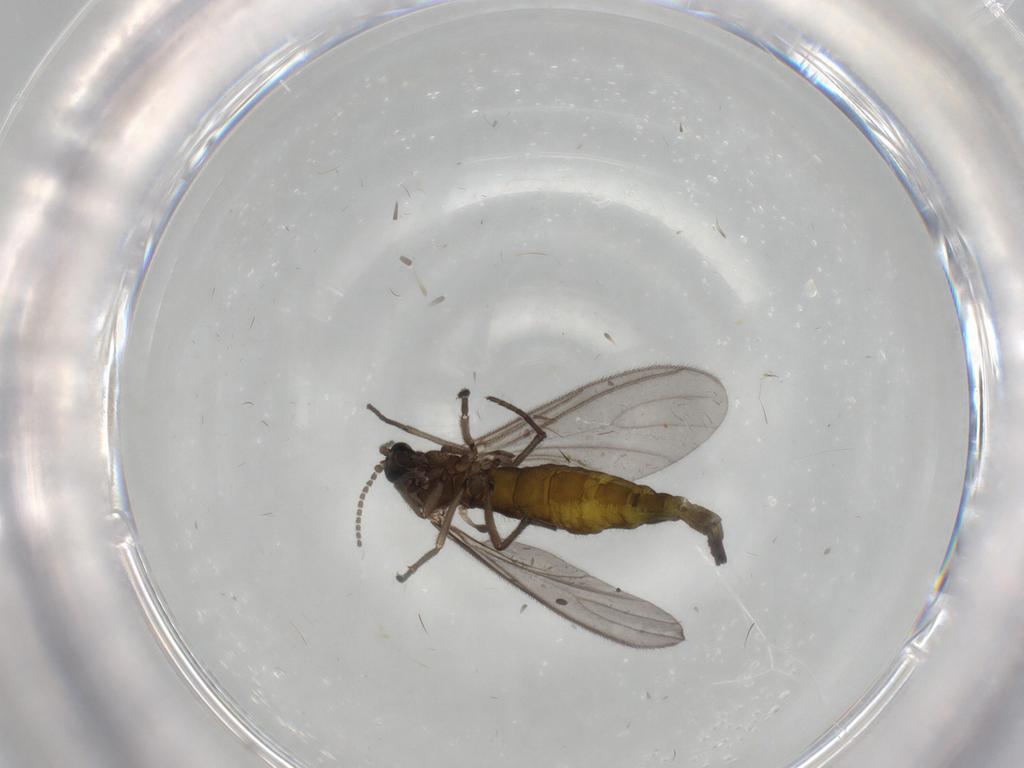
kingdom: Animalia
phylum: Arthropoda
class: Insecta
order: Diptera
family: Sciaridae
